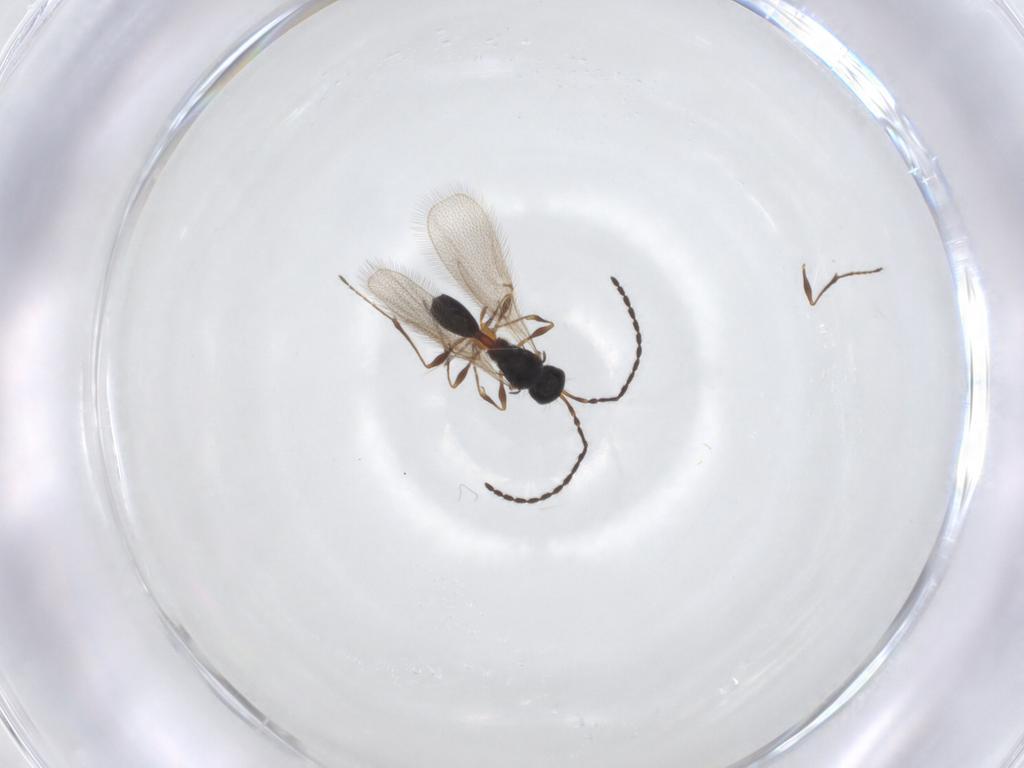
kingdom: Animalia
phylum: Arthropoda
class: Insecta
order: Hymenoptera
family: Diapriidae
